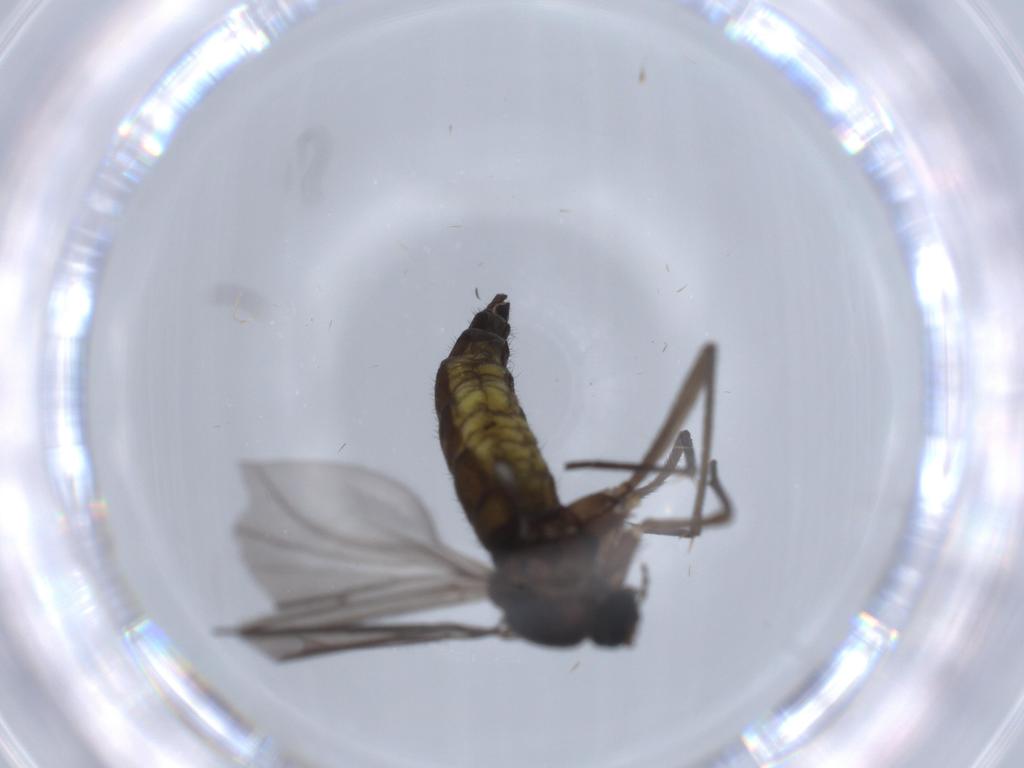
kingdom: Animalia
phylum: Arthropoda
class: Insecta
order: Diptera
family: Sciaridae
